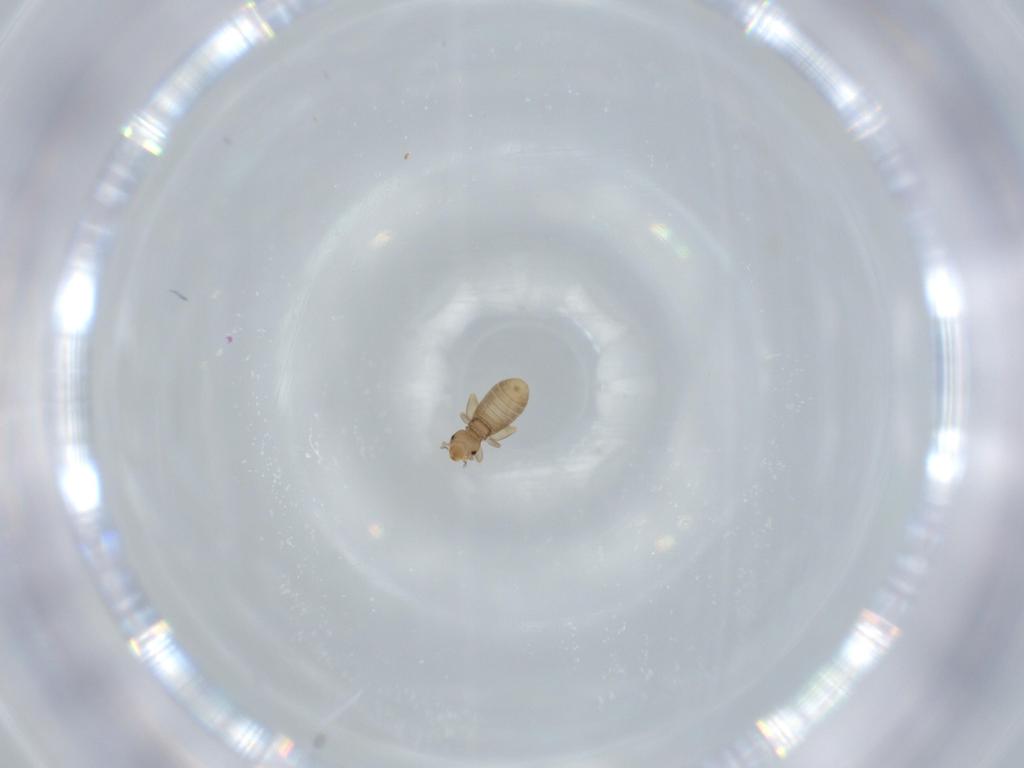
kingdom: Animalia
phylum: Arthropoda
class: Insecta
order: Psocodea
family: Liposcelididae
